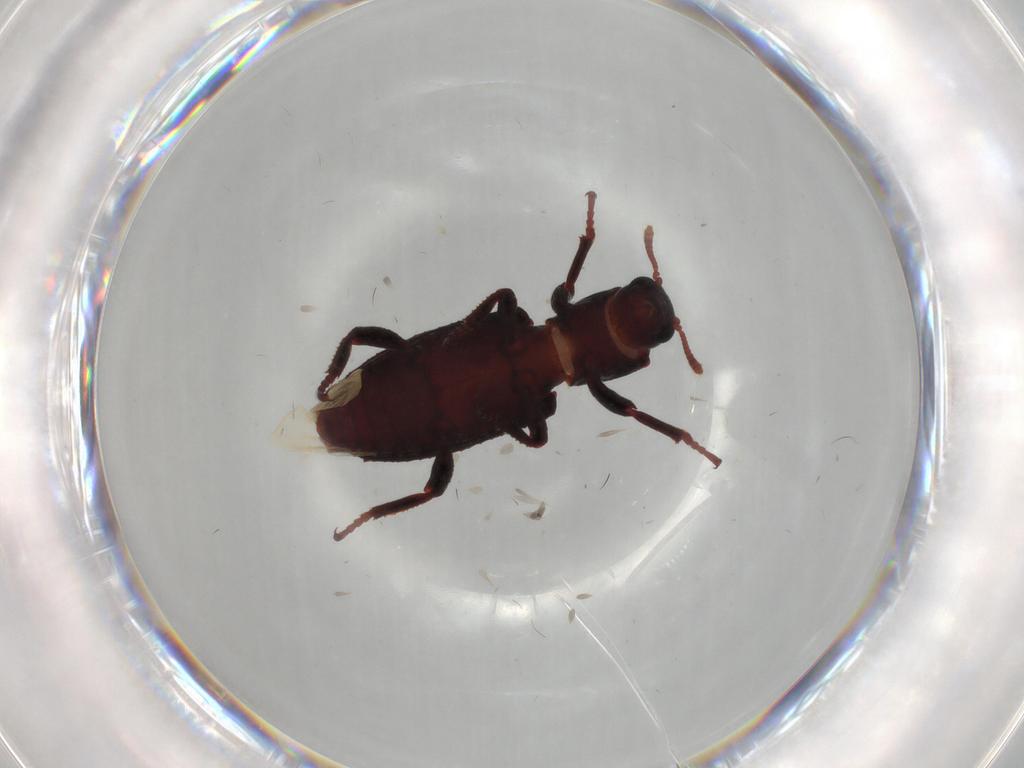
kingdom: Animalia
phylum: Arthropoda
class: Insecta
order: Coleoptera
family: Bothrideridae
